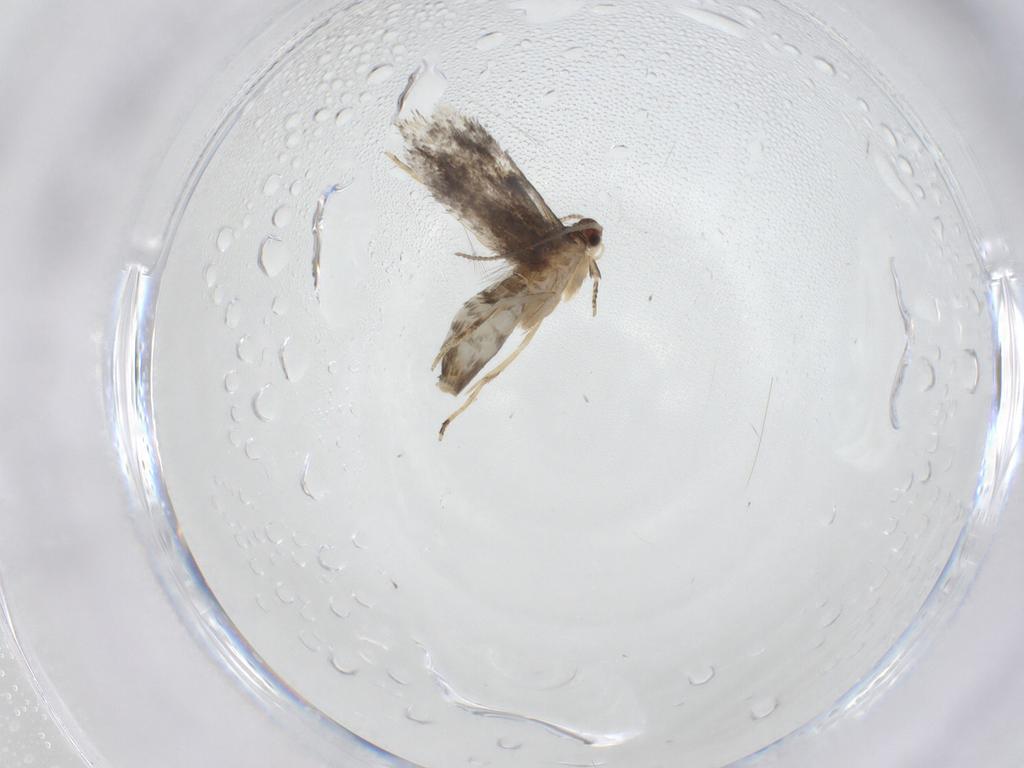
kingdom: Animalia
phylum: Arthropoda
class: Insecta
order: Lepidoptera
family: Tineidae
